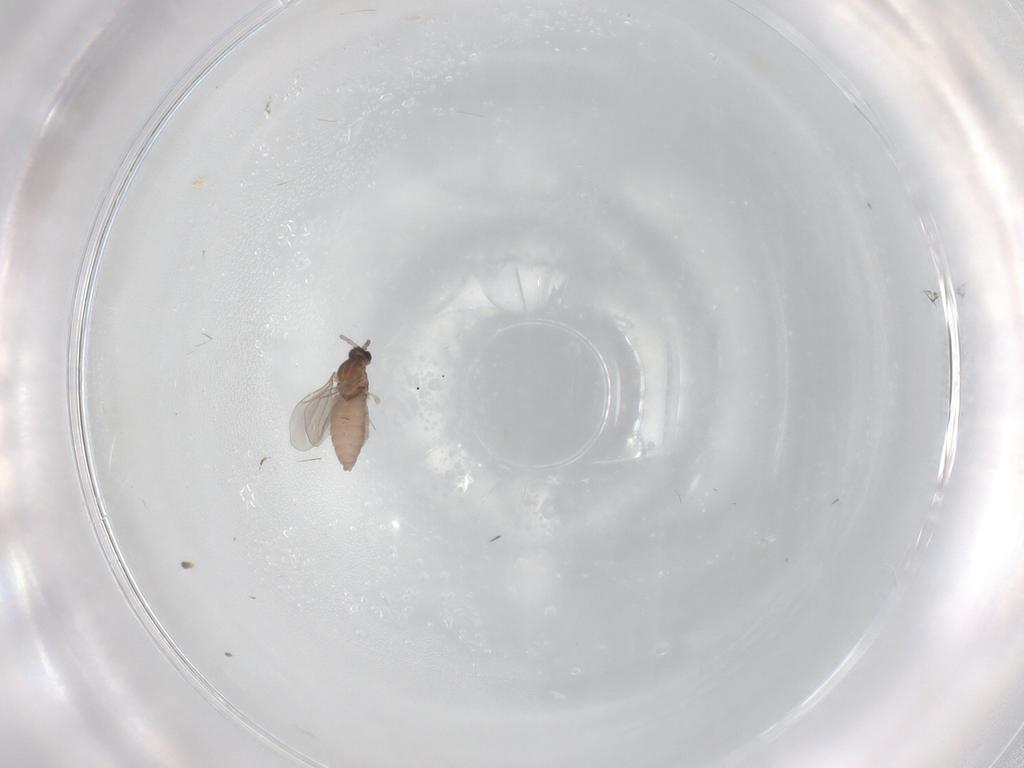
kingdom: Animalia
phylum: Arthropoda
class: Insecta
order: Diptera
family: Cecidomyiidae
